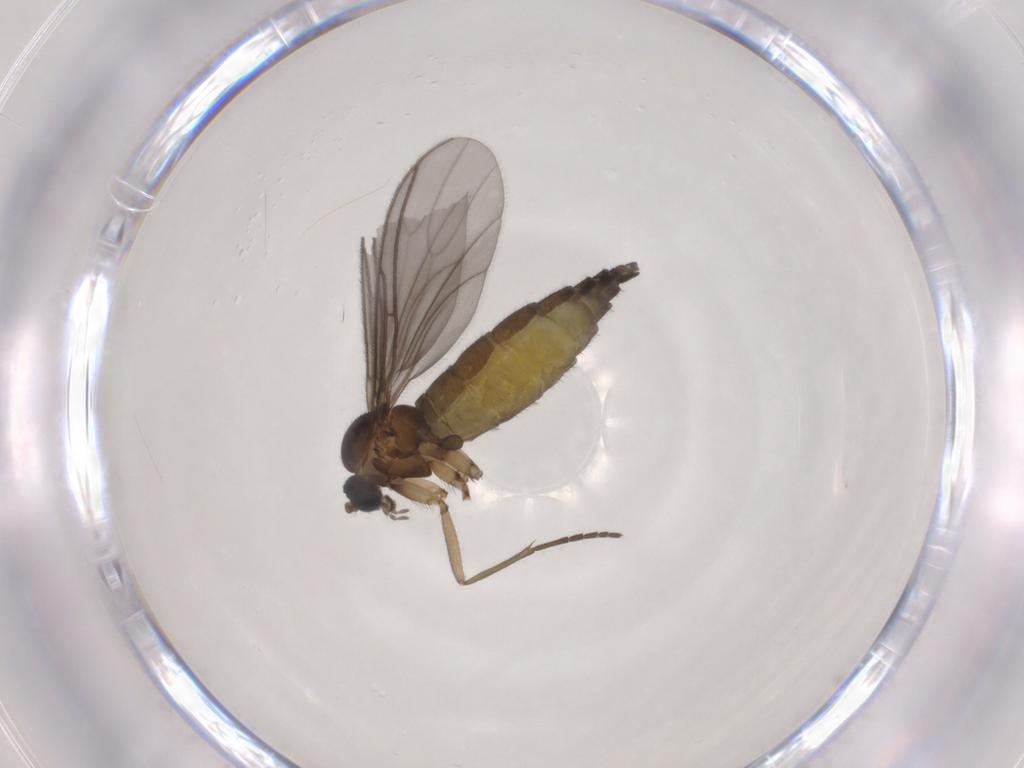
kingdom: Animalia
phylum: Arthropoda
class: Insecta
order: Diptera
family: Sciaridae
